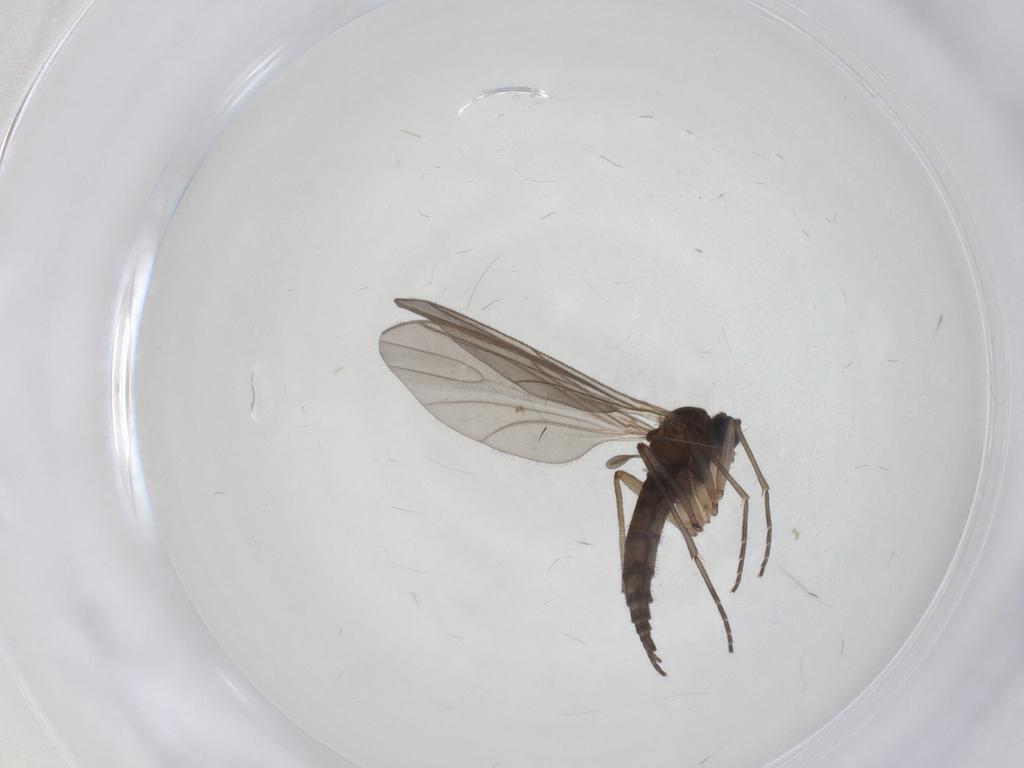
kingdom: Animalia
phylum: Arthropoda
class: Insecta
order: Diptera
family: Sciaridae
